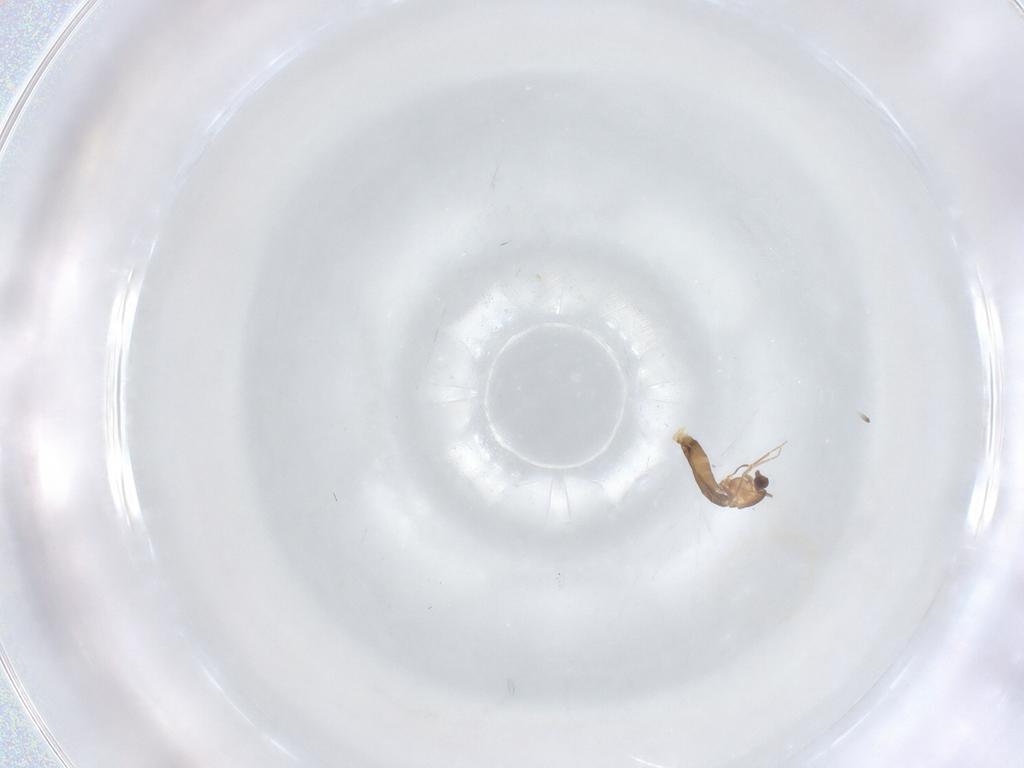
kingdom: Animalia
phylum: Arthropoda
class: Insecta
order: Diptera
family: Chironomidae
